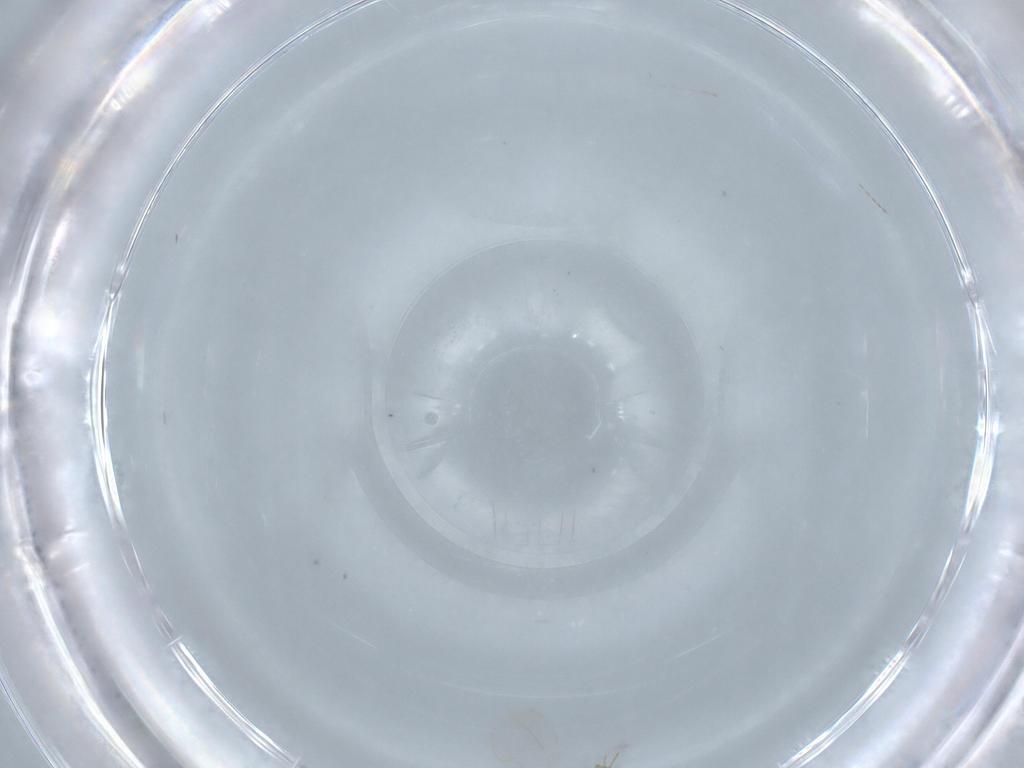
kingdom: Animalia
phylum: Arthropoda
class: Insecta
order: Diptera
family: Cecidomyiidae
